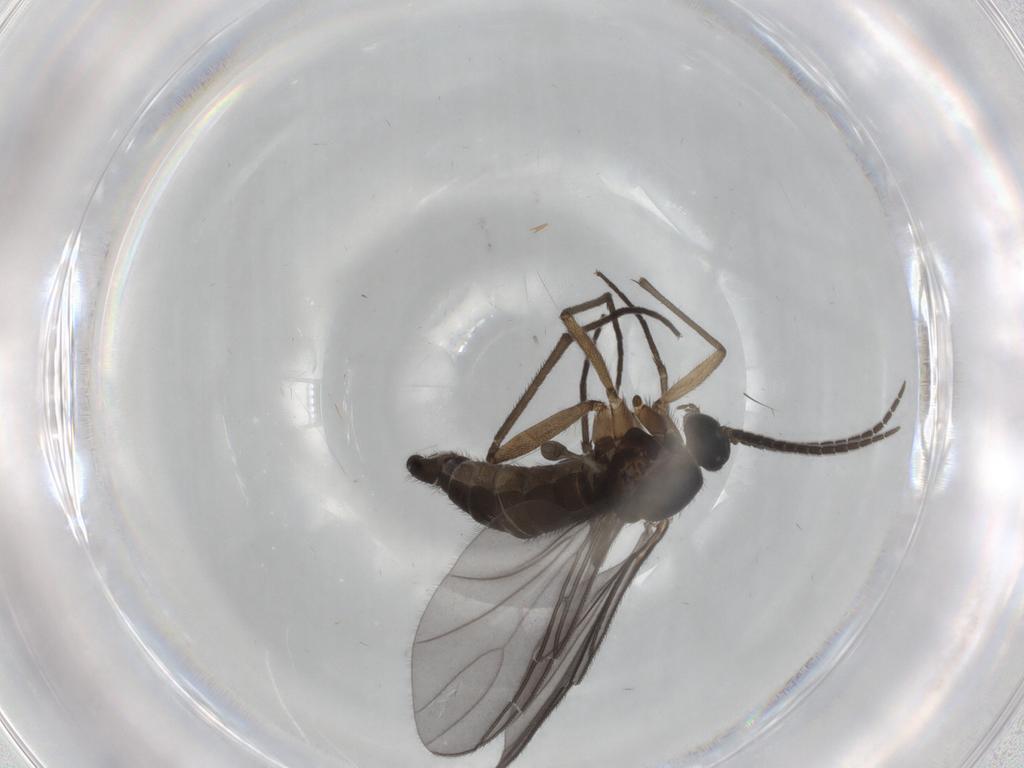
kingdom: Animalia
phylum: Arthropoda
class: Insecta
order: Diptera
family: Sciaridae
